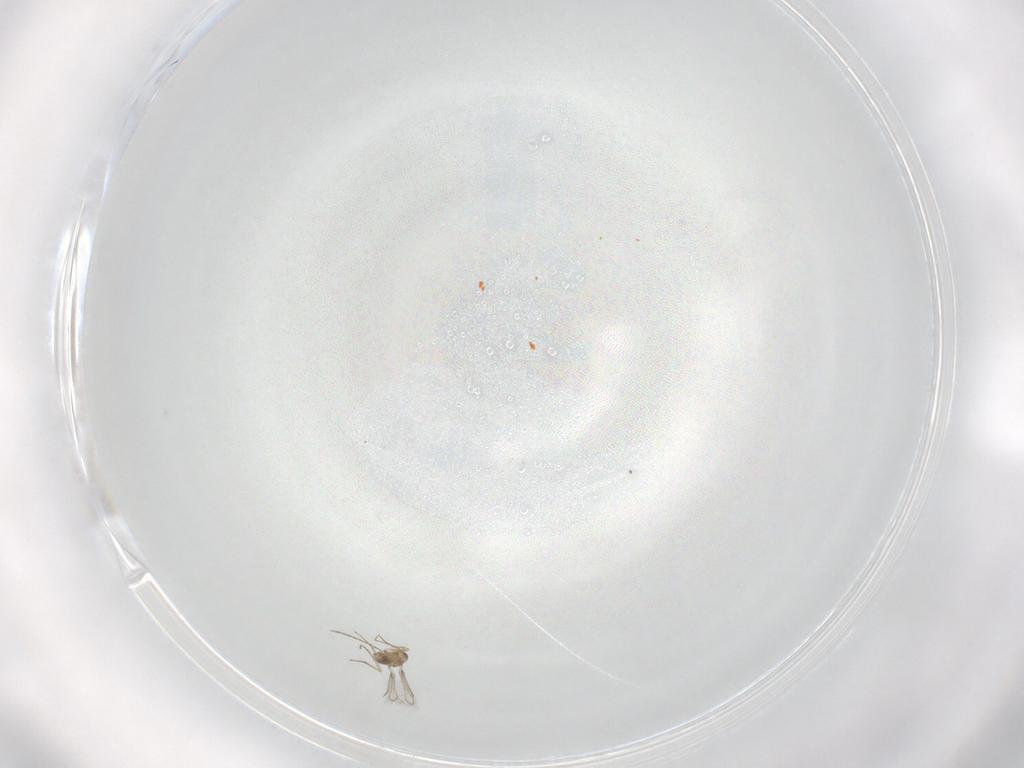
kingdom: Animalia
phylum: Arthropoda
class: Insecta
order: Hymenoptera
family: Mymaridae
